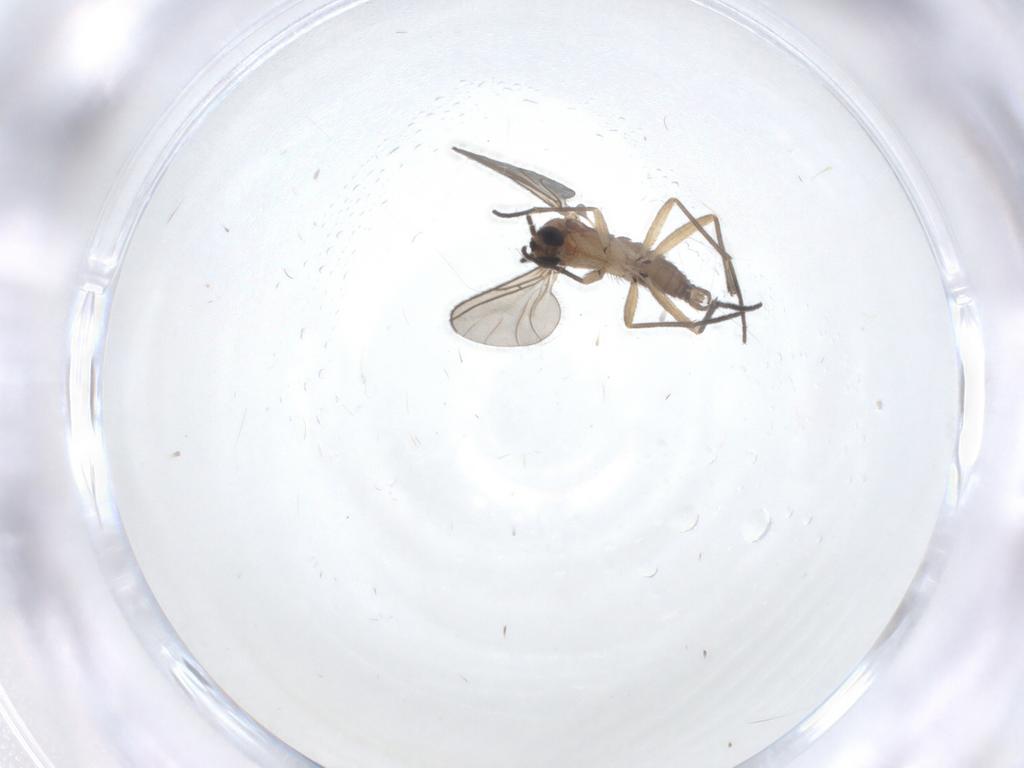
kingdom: Animalia
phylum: Arthropoda
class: Insecta
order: Diptera
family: Sciaridae
